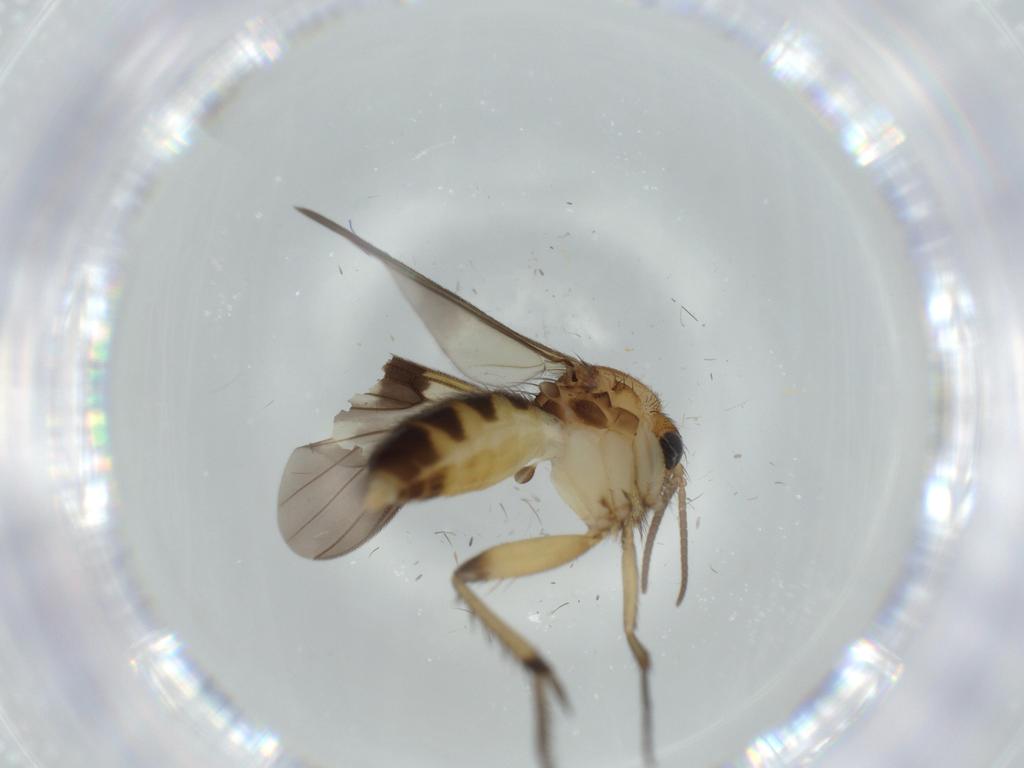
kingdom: Animalia
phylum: Arthropoda
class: Insecta
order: Diptera
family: Mycetophilidae
